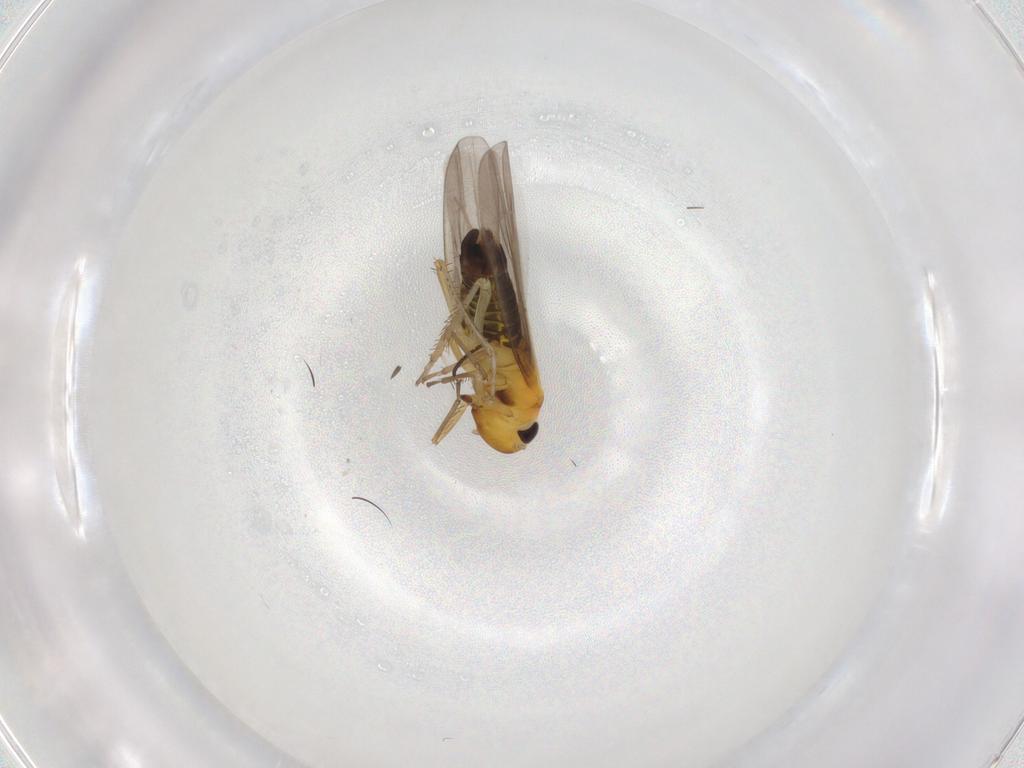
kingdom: Animalia
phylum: Arthropoda
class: Insecta
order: Hemiptera
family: Cicadellidae
